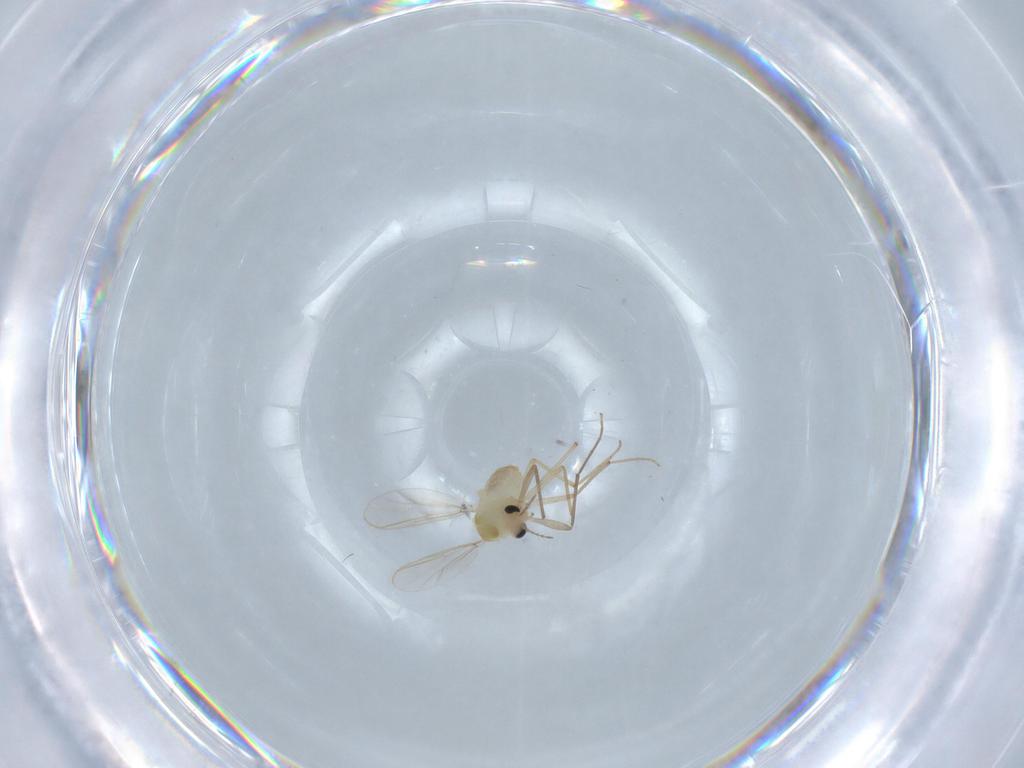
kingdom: Animalia
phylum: Arthropoda
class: Insecta
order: Diptera
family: Chironomidae
